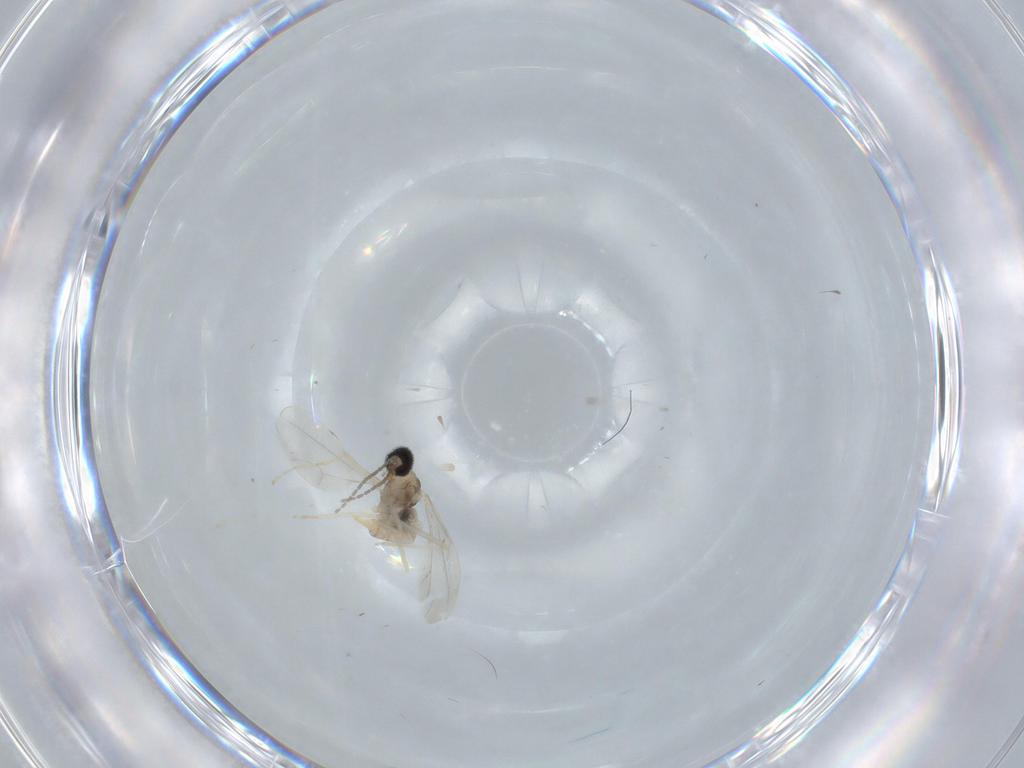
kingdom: Animalia
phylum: Arthropoda
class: Insecta
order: Diptera
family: Cecidomyiidae
